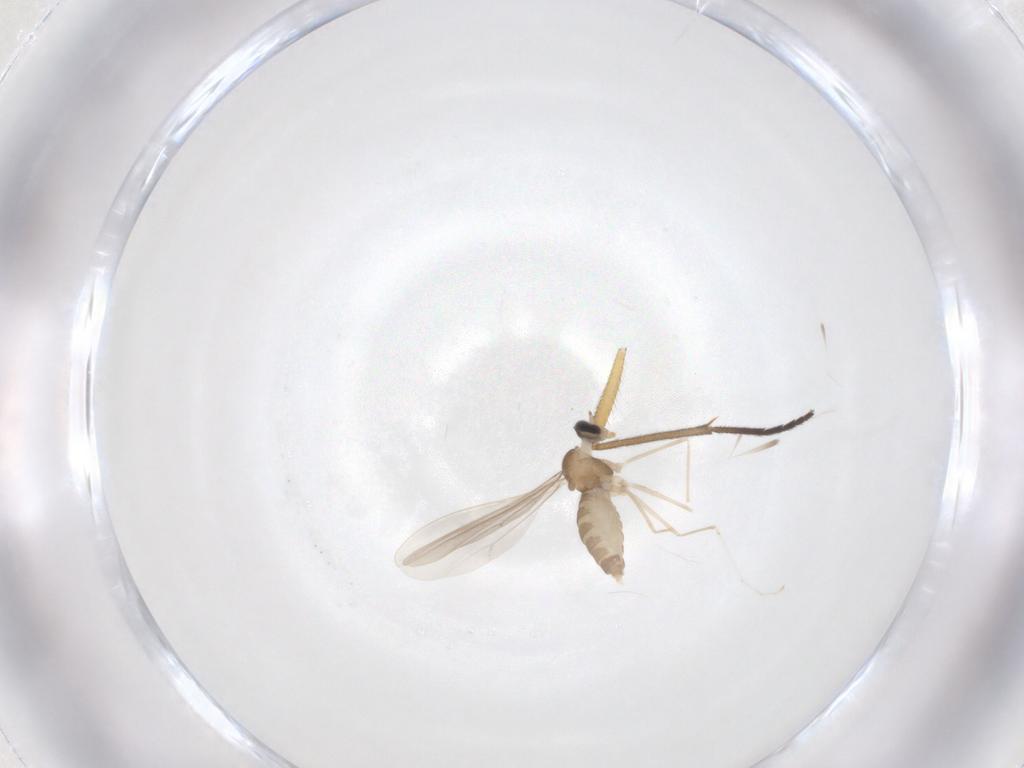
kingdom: Animalia
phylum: Arthropoda
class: Insecta
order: Diptera
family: Cecidomyiidae
